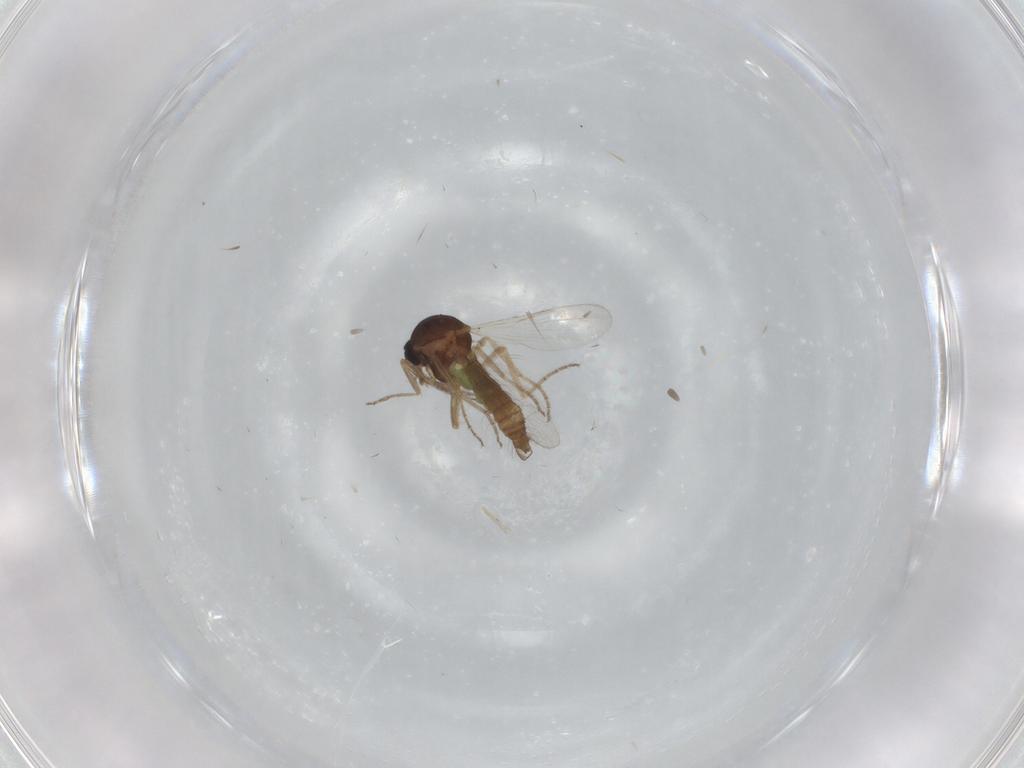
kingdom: Animalia
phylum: Arthropoda
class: Insecta
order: Diptera
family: Ceratopogonidae
